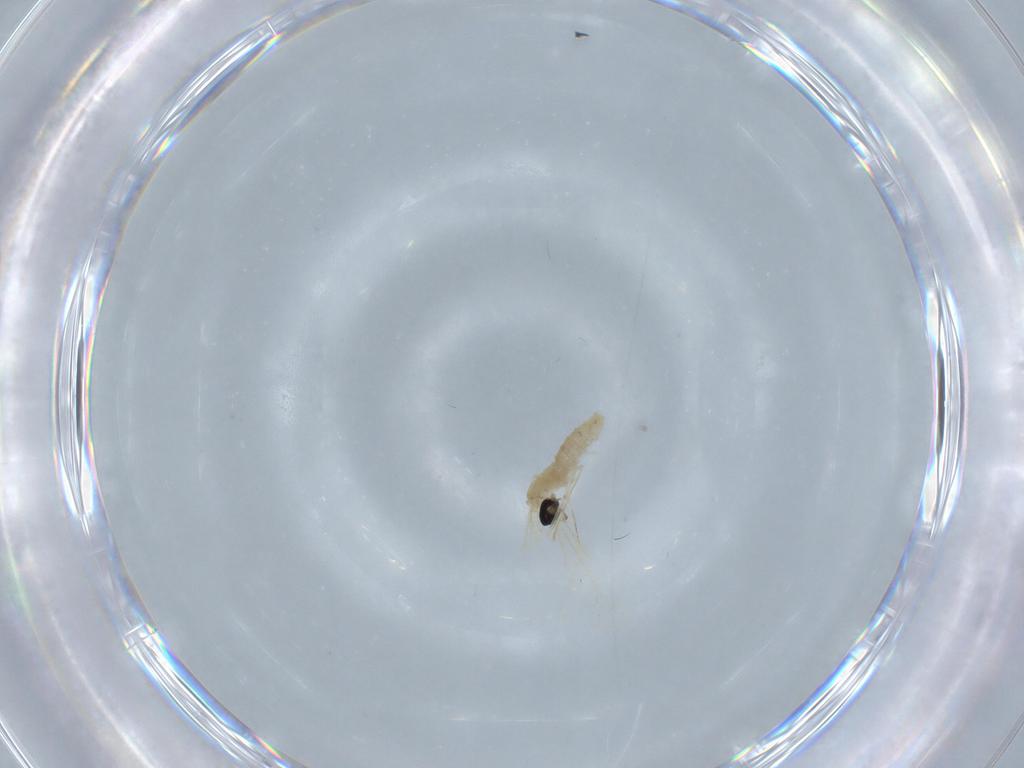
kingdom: Animalia
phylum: Arthropoda
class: Insecta
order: Diptera
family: Cecidomyiidae
